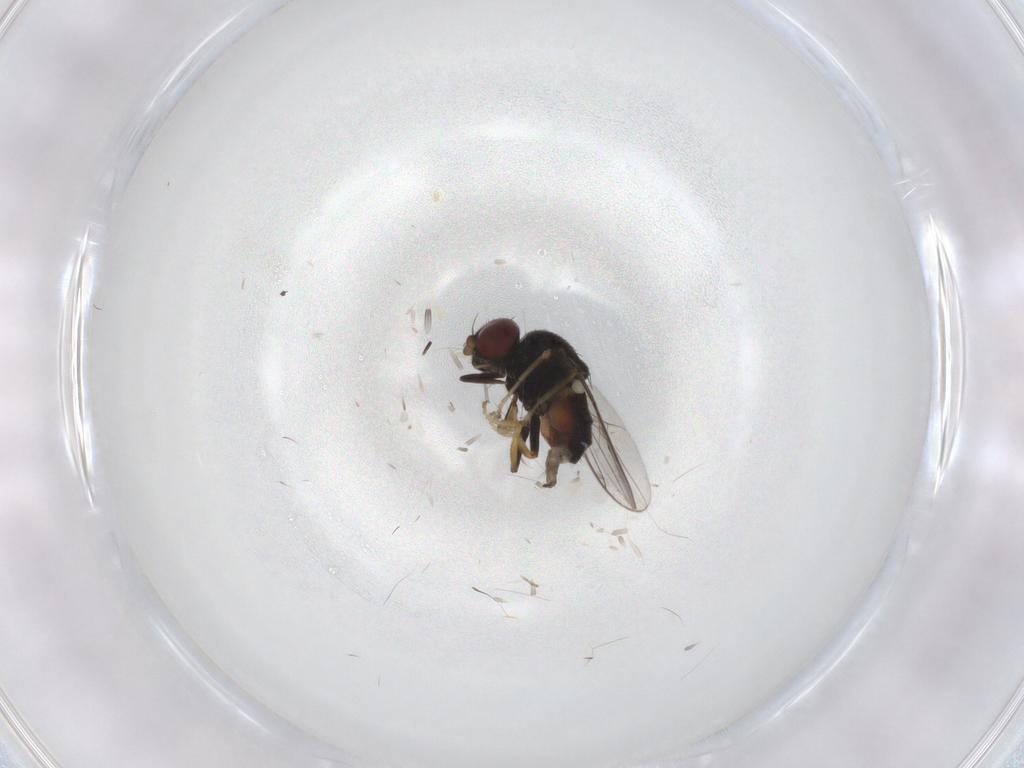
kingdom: Animalia
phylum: Arthropoda
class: Insecta
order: Diptera
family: Chloropidae
